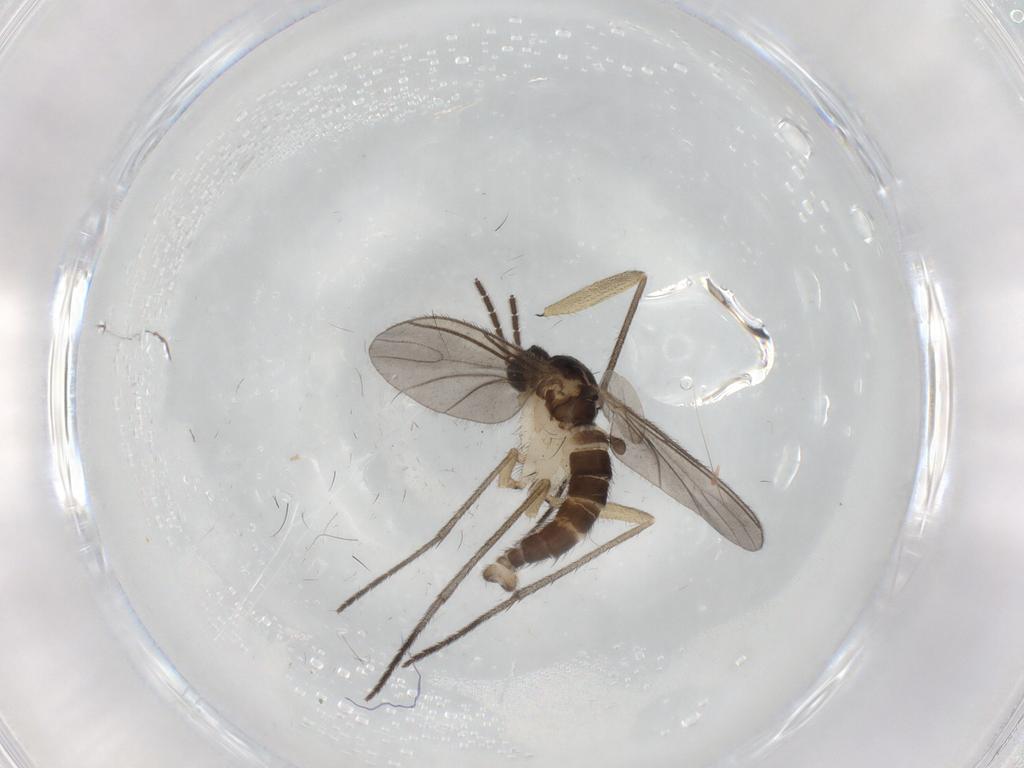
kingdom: Animalia
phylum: Arthropoda
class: Insecta
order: Diptera
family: Sciaridae
